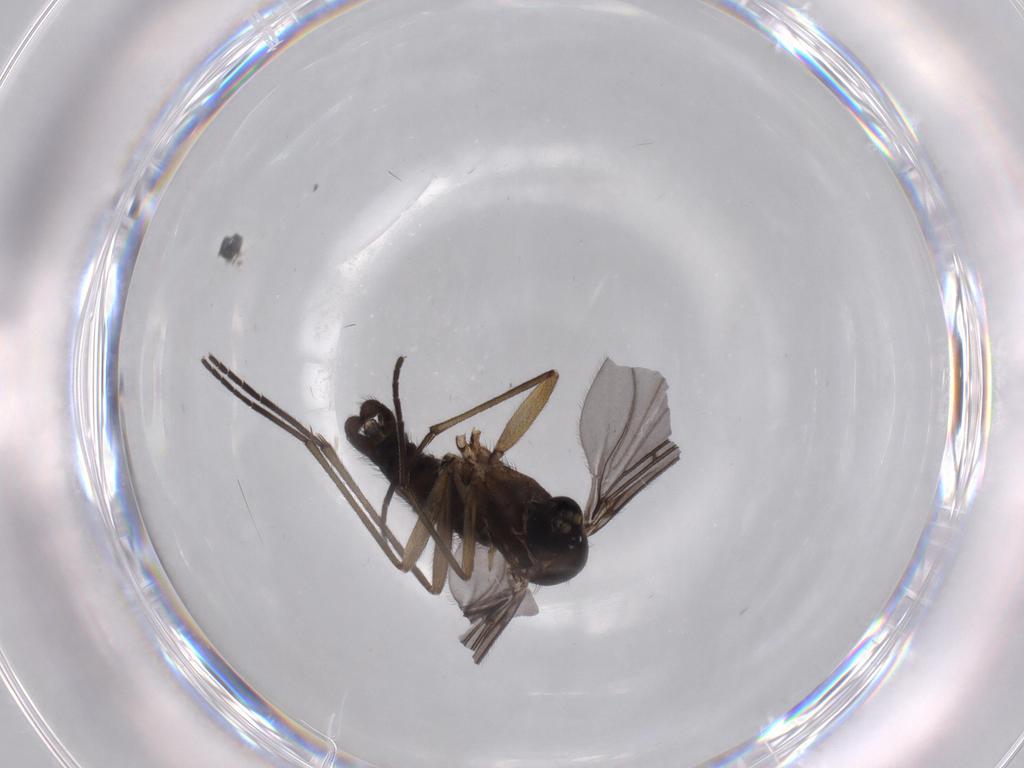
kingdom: Animalia
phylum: Arthropoda
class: Insecta
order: Diptera
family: Sciaridae
